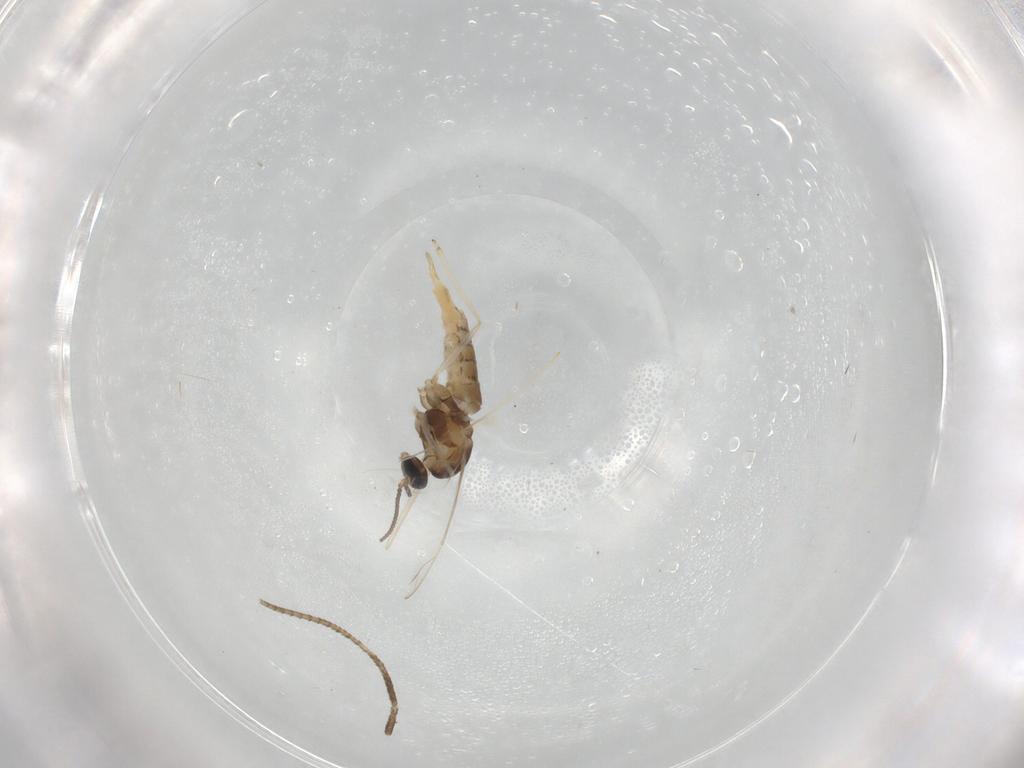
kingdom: Animalia
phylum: Arthropoda
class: Insecta
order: Diptera
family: Cecidomyiidae
